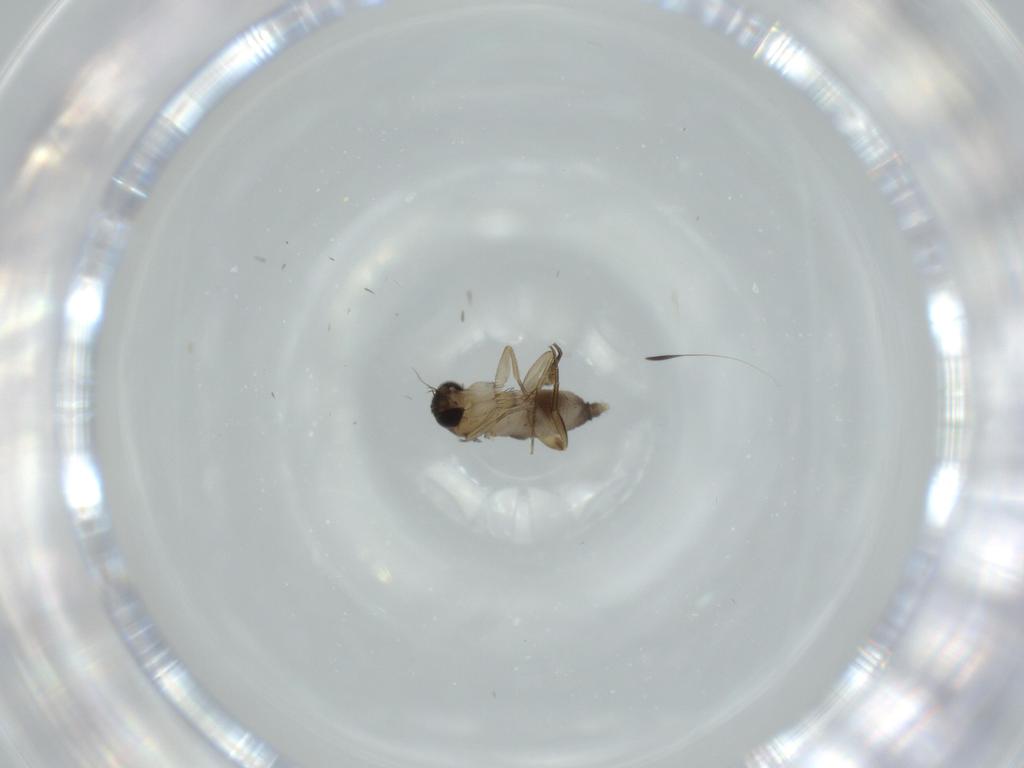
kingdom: Animalia
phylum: Arthropoda
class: Insecta
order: Diptera
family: Phoridae
